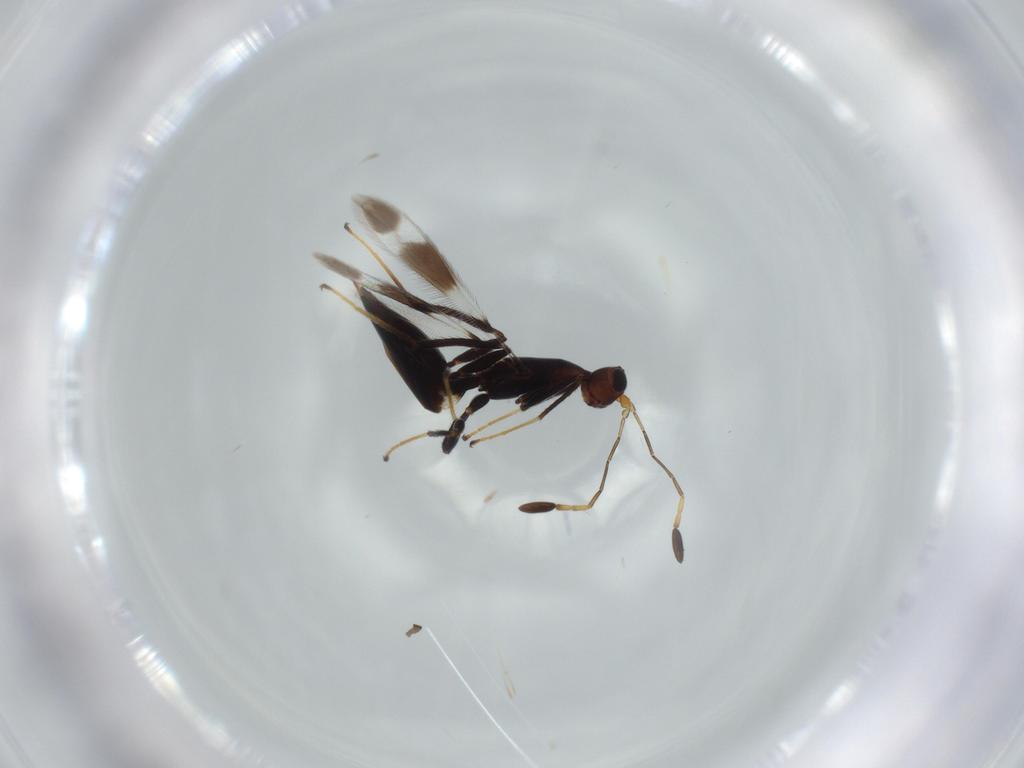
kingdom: Animalia
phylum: Arthropoda
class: Insecta
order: Hymenoptera
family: Mymaridae
